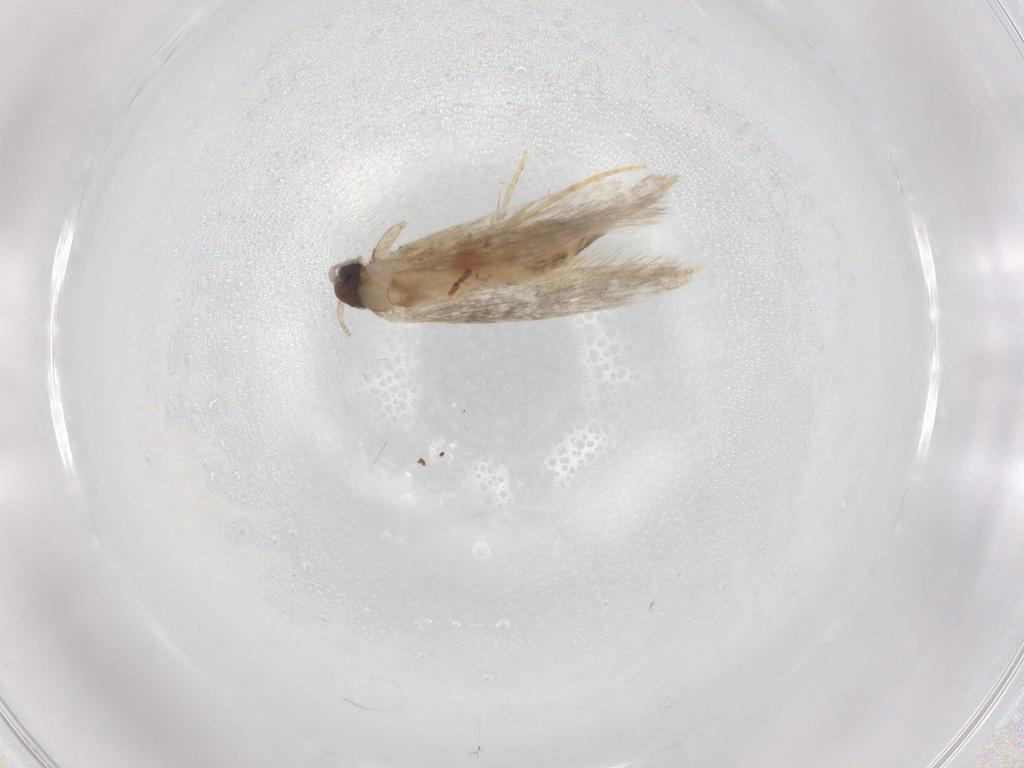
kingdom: Animalia
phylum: Arthropoda
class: Insecta
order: Lepidoptera
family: Tineidae
